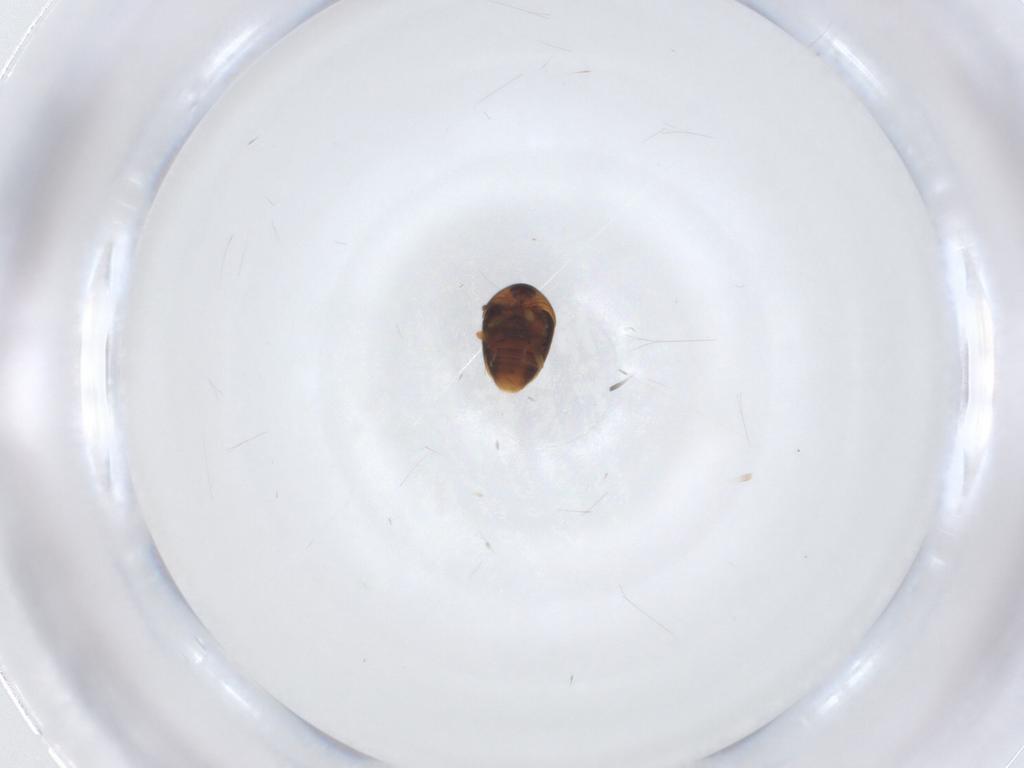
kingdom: Animalia
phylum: Arthropoda
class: Insecta
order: Coleoptera
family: Corylophidae
